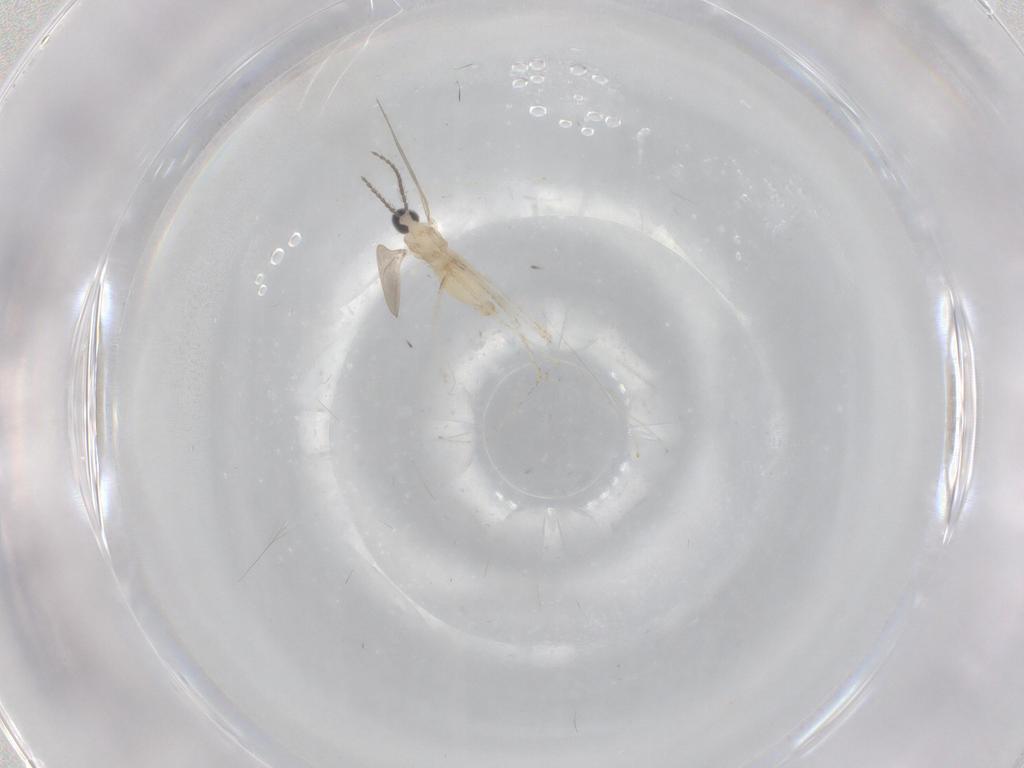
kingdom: Animalia
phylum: Arthropoda
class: Insecta
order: Diptera
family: Cecidomyiidae
